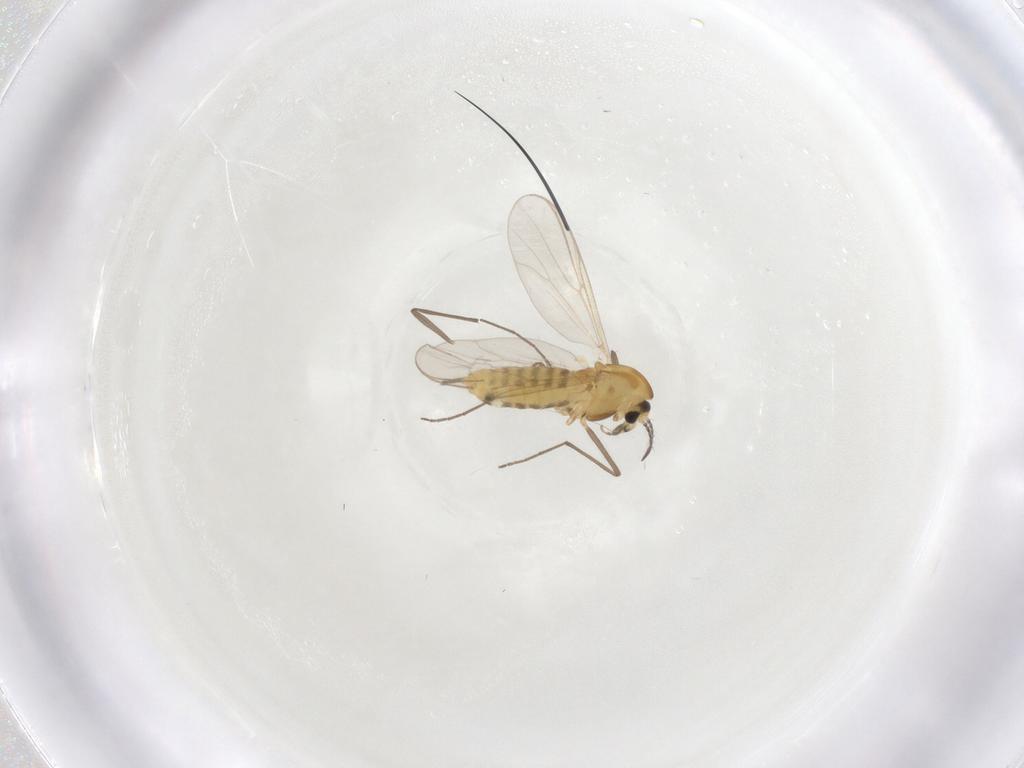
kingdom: Animalia
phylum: Arthropoda
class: Insecta
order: Diptera
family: Chironomidae
